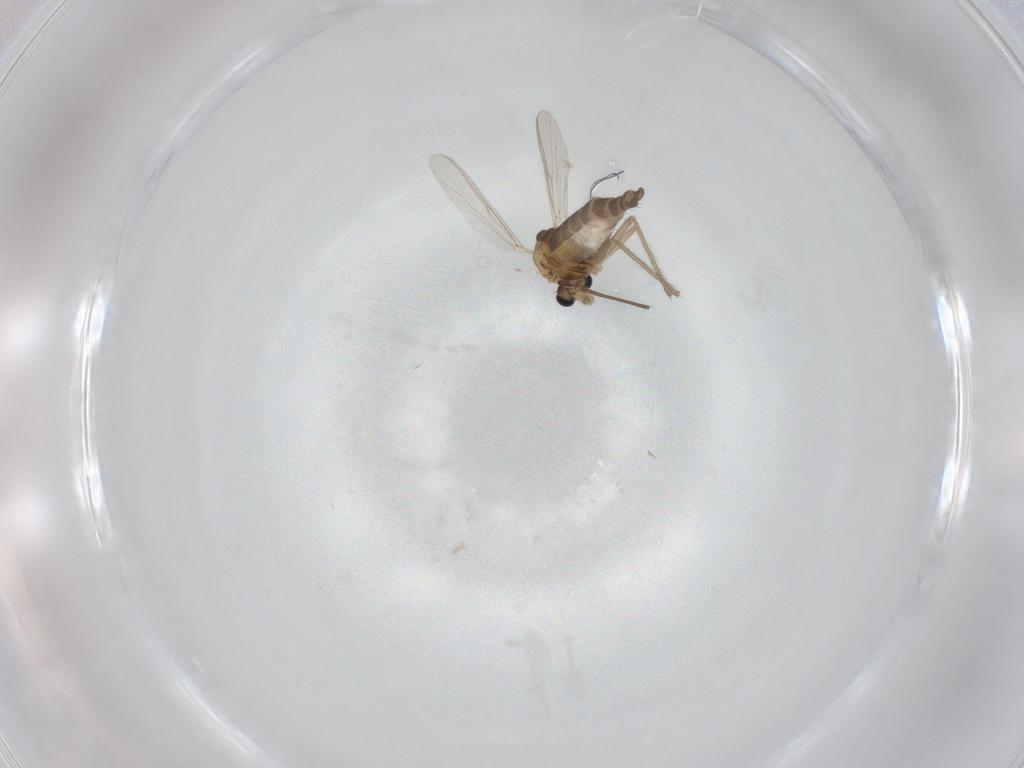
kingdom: Animalia
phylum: Arthropoda
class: Insecta
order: Diptera
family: Chironomidae
